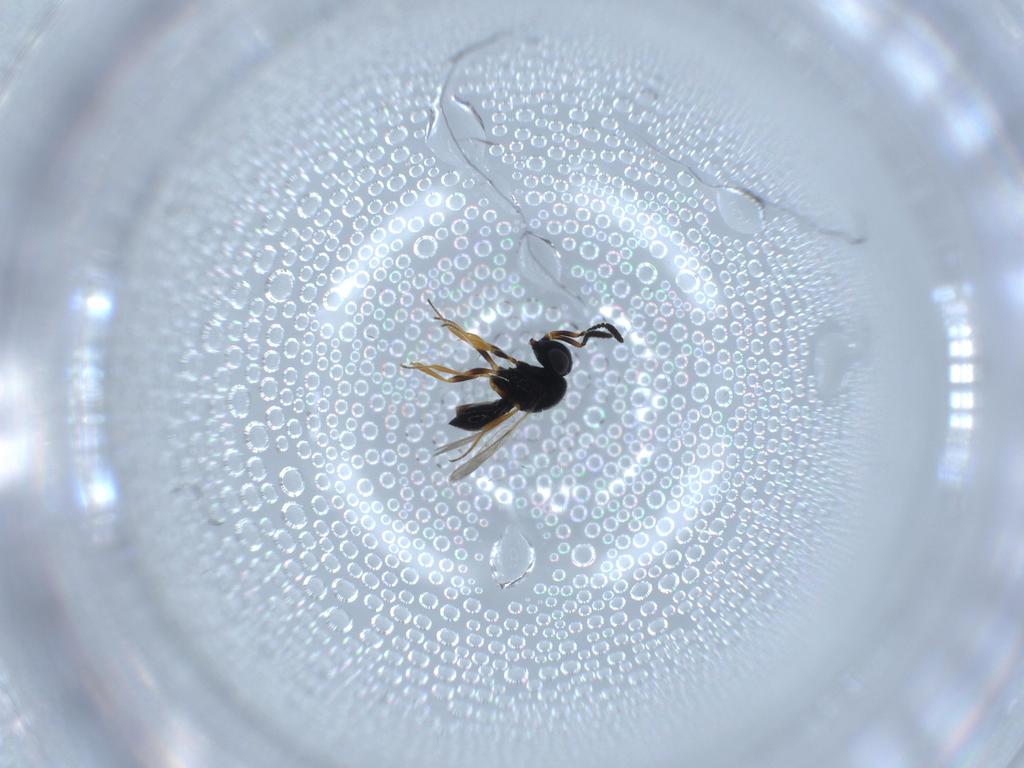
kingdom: Animalia
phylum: Arthropoda
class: Insecta
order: Hymenoptera
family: Scelionidae
